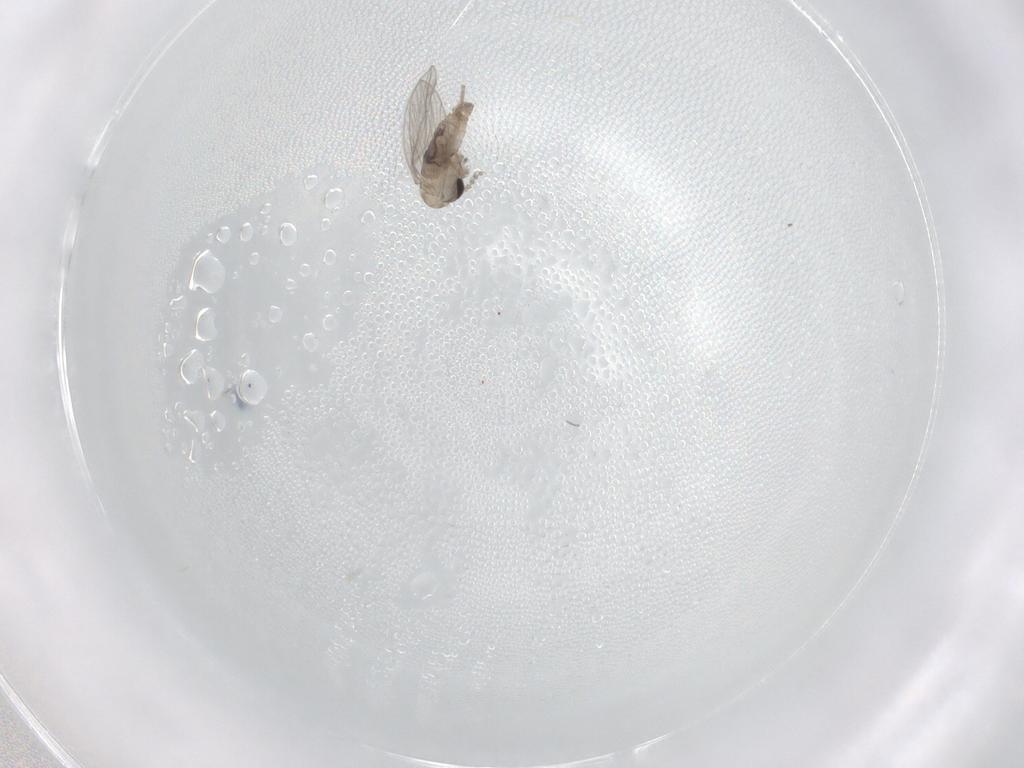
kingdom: Animalia
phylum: Arthropoda
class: Insecta
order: Diptera
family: Psychodidae
